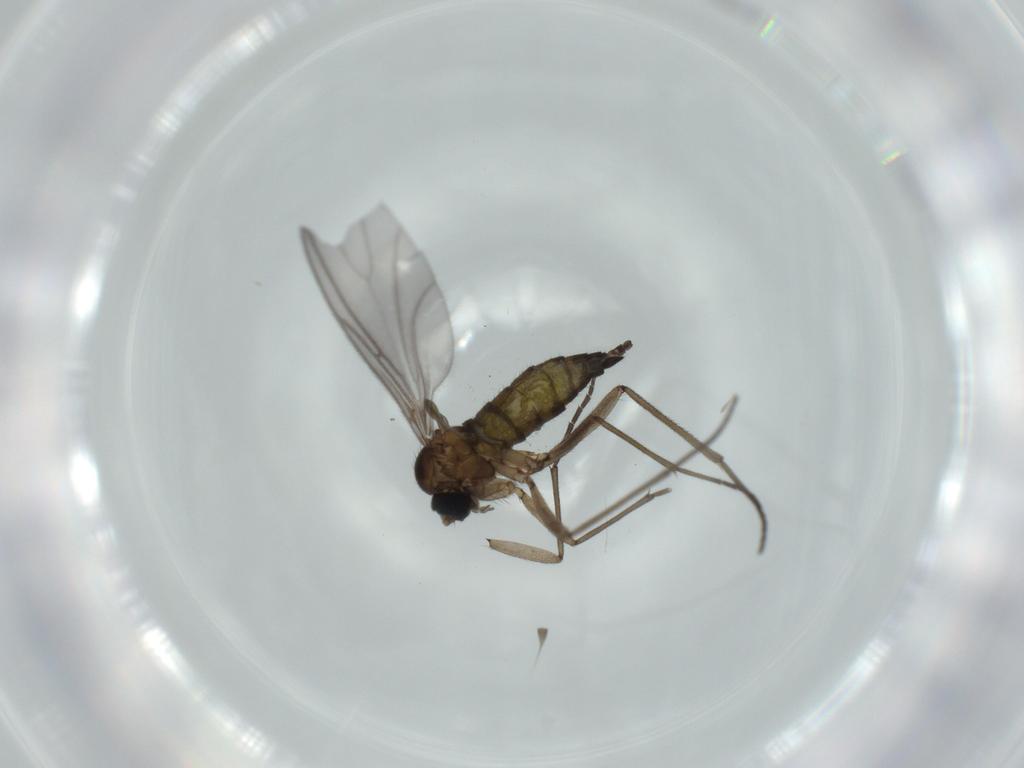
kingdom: Animalia
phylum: Arthropoda
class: Insecta
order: Diptera
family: Sciaridae
